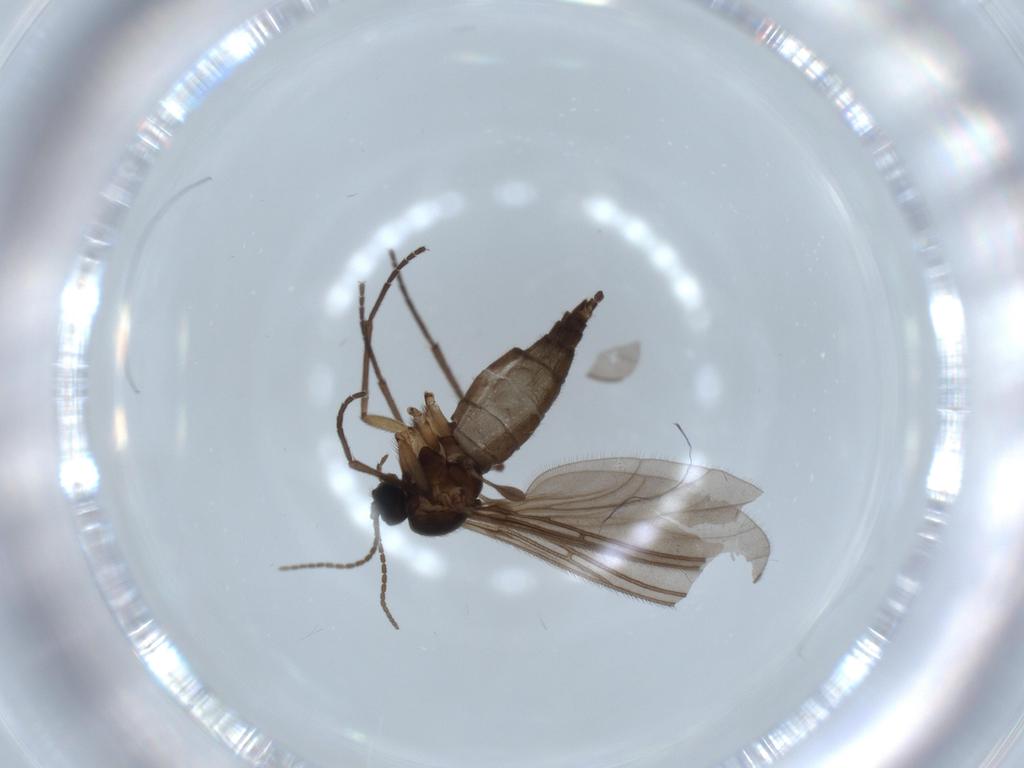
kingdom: Animalia
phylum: Arthropoda
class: Insecta
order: Diptera
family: Sciaridae
